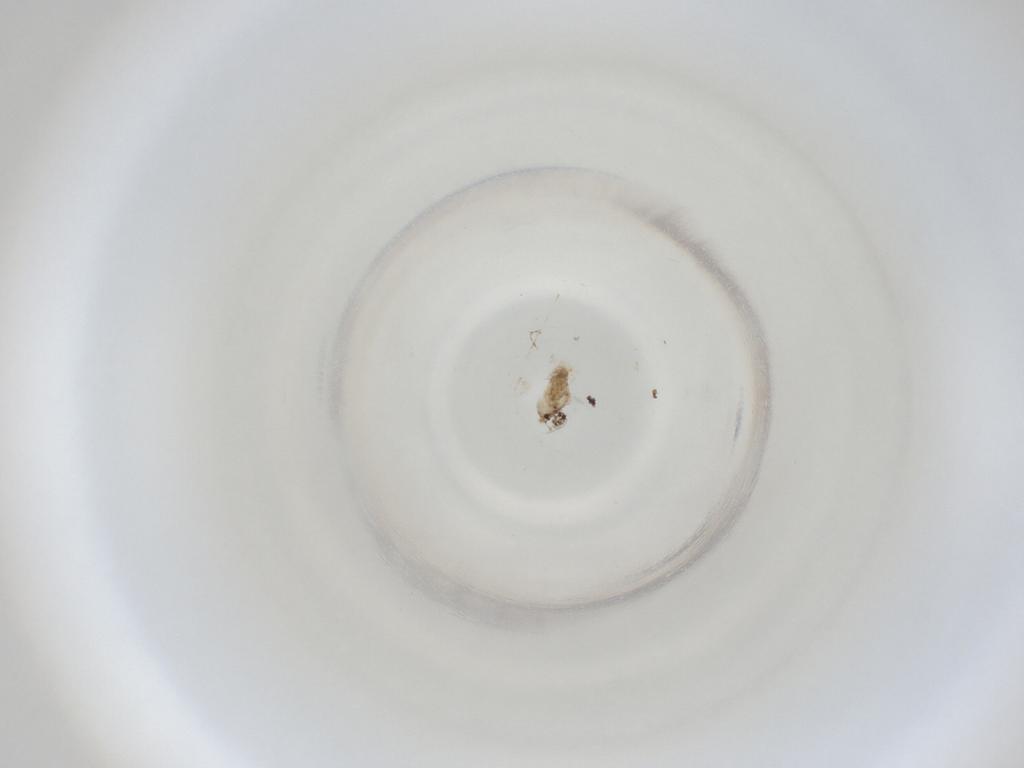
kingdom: Animalia
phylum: Arthropoda
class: Insecta
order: Diptera
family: Cecidomyiidae
